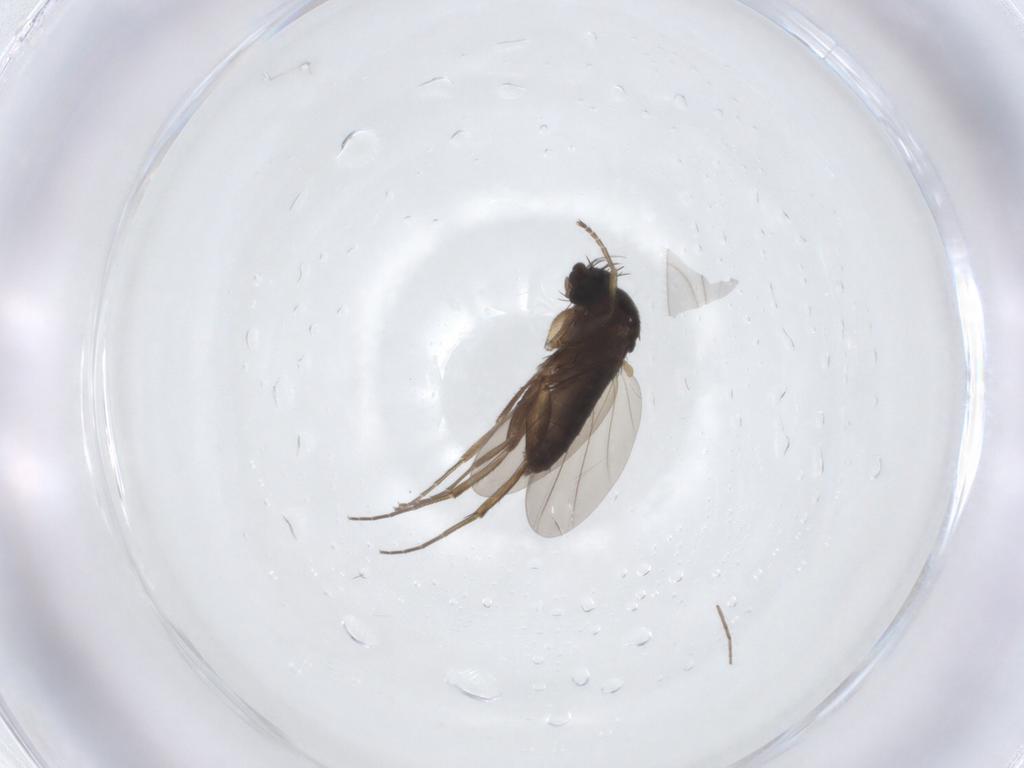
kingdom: Animalia
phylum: Arthropoda
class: Insecta
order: Diptera
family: Phoridae
